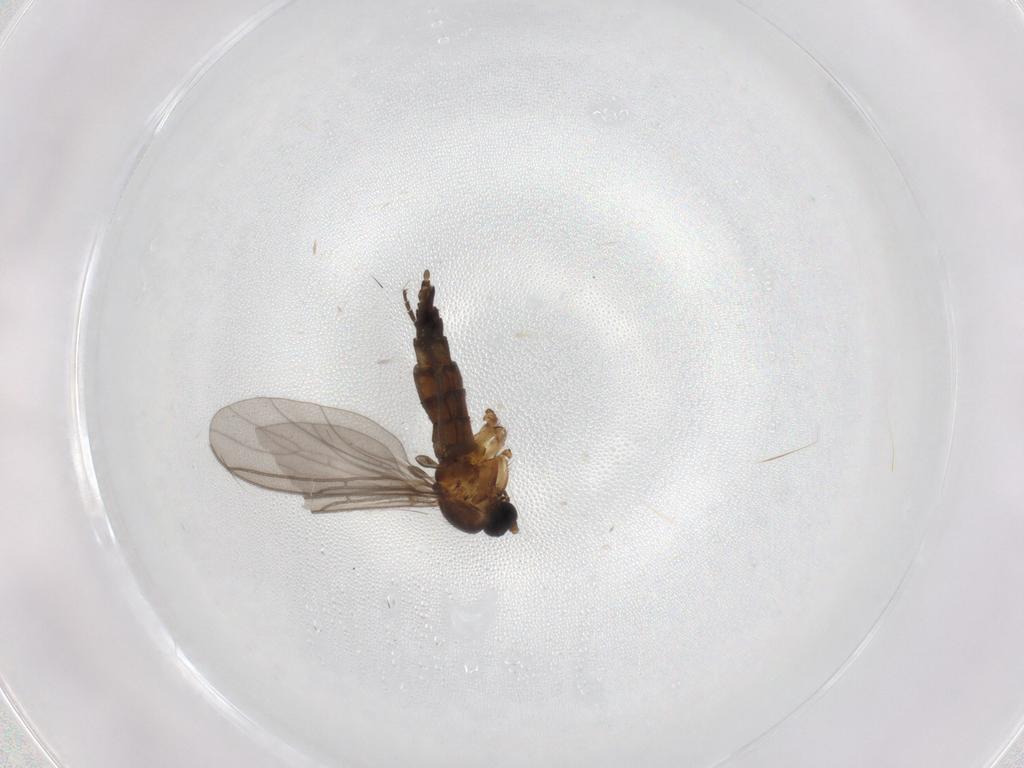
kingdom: Animalia
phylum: Arthropoda
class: Insecta
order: Diptera
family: Sciaridae
